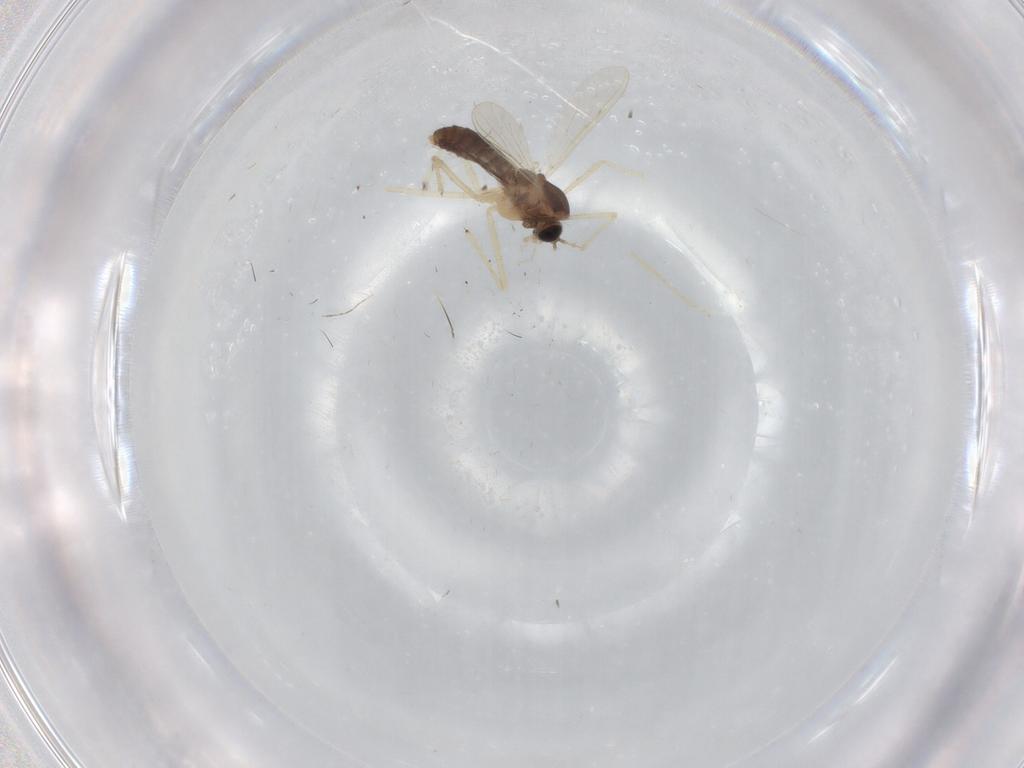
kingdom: Animalia
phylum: Arthropoda
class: Insecta
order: Diptera
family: Chironomidae
